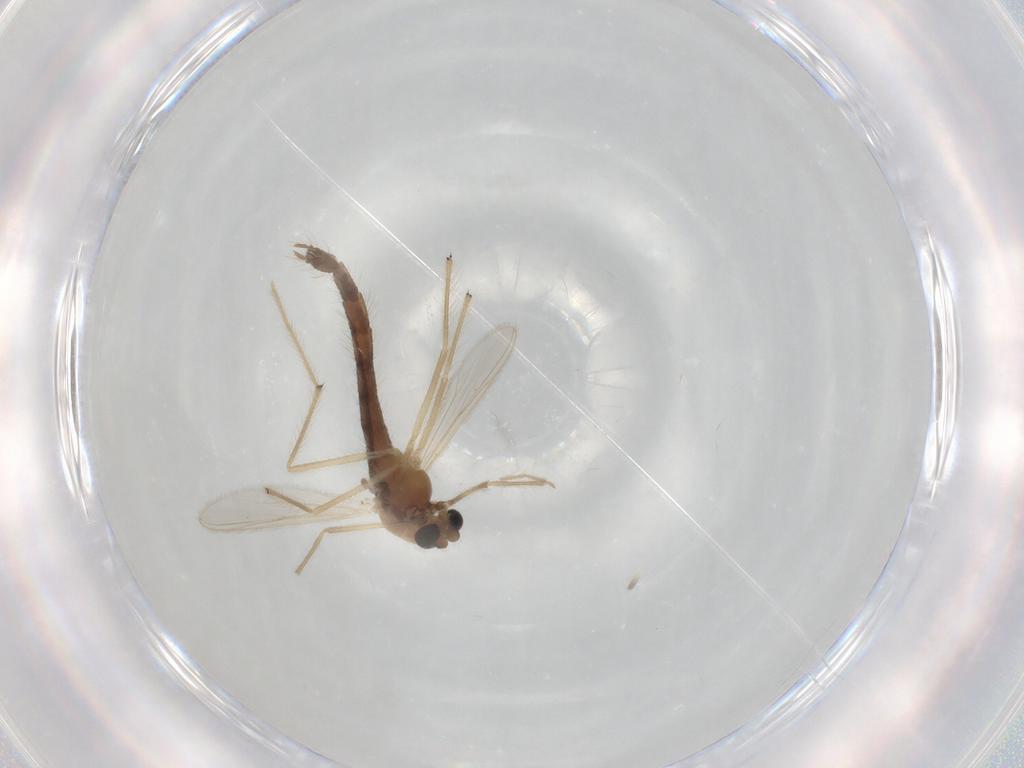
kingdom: Animalia
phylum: Arthropoda
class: Insecta
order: Diptera
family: Chironomidae
